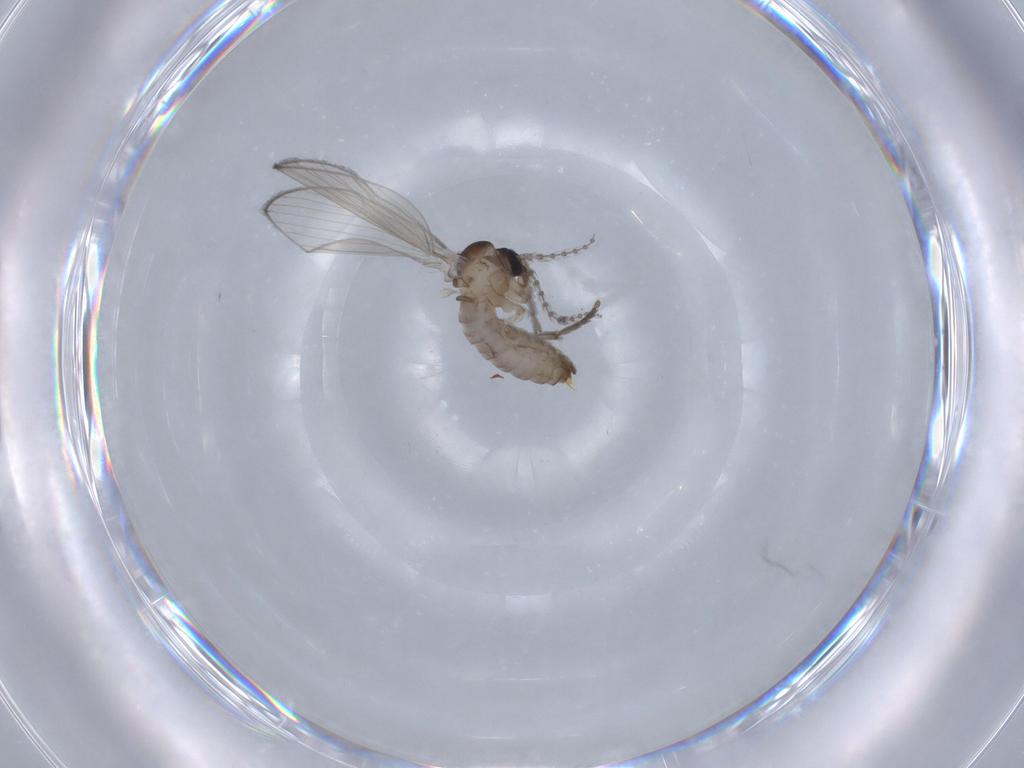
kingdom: Animalia
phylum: Arthropoda
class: Insecta
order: Diptera
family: Psychodidae
